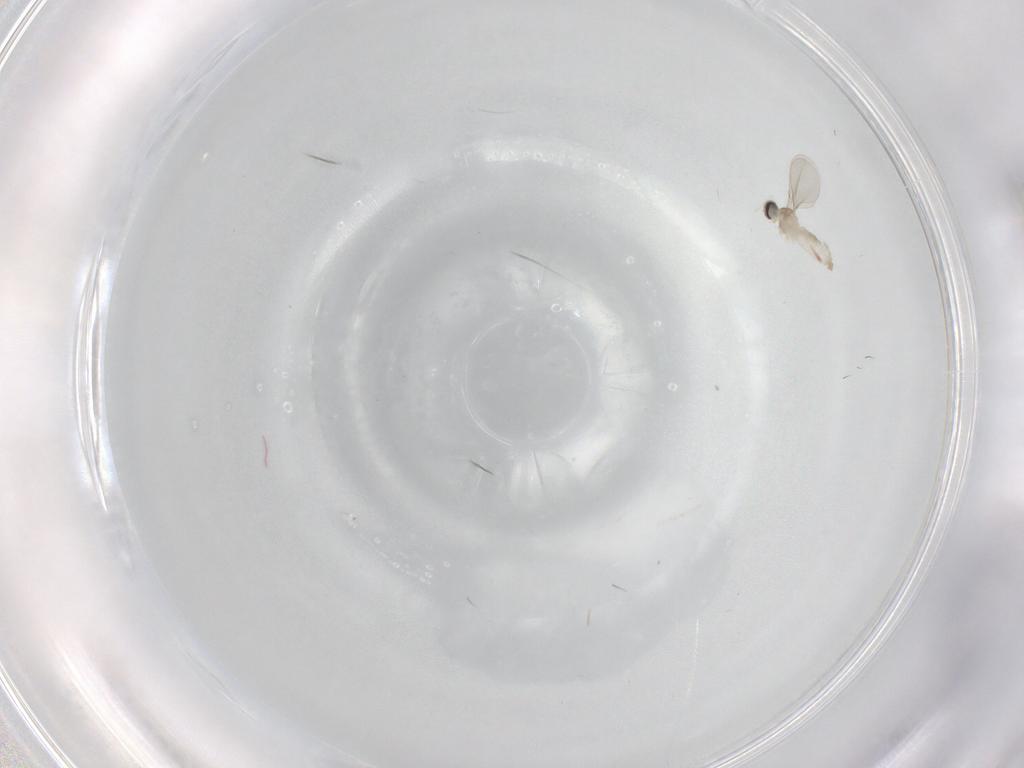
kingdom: Animalia
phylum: Arthropoda
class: Insecta
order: Diptera
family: Cecidomyiidae
